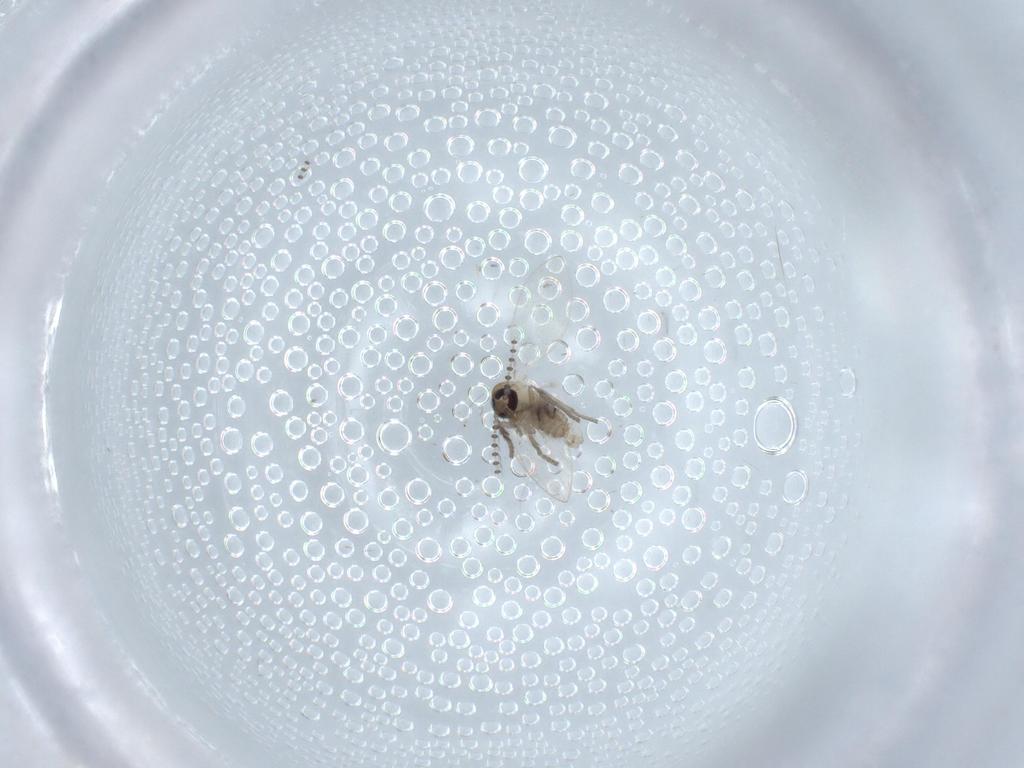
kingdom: Animalia
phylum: Arthropoda
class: Insecta
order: Diptera
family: Psychodidae
